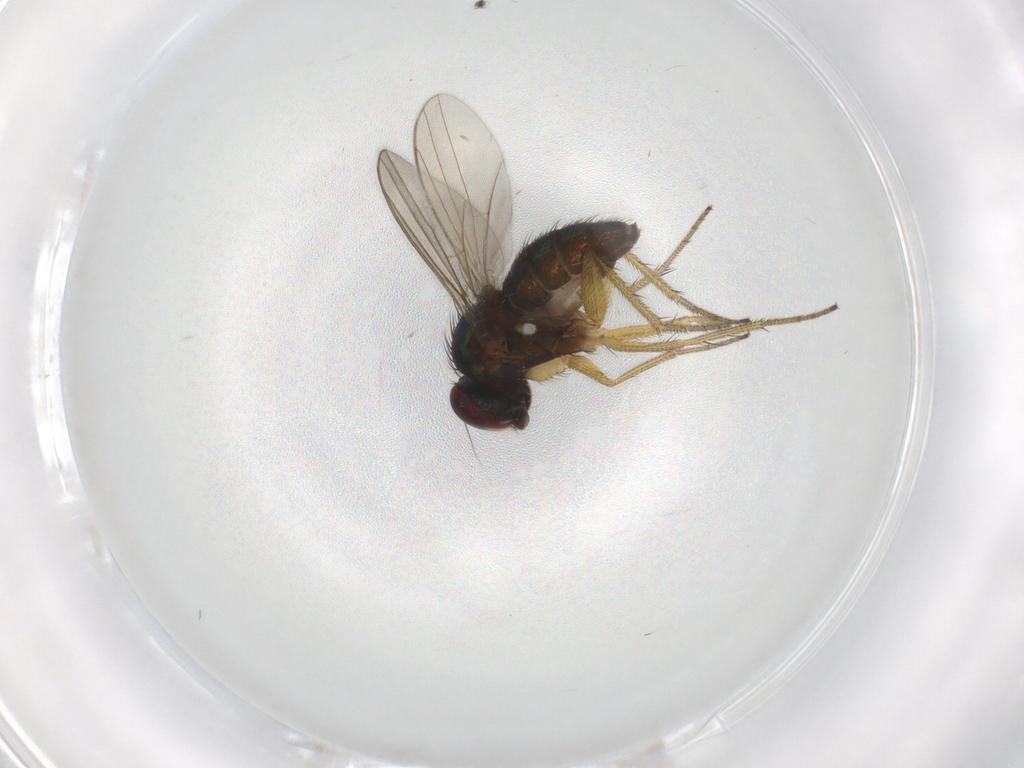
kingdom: Animalia
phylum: Arthropoda
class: Insecta
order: Diptera
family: Dolichopodidae
